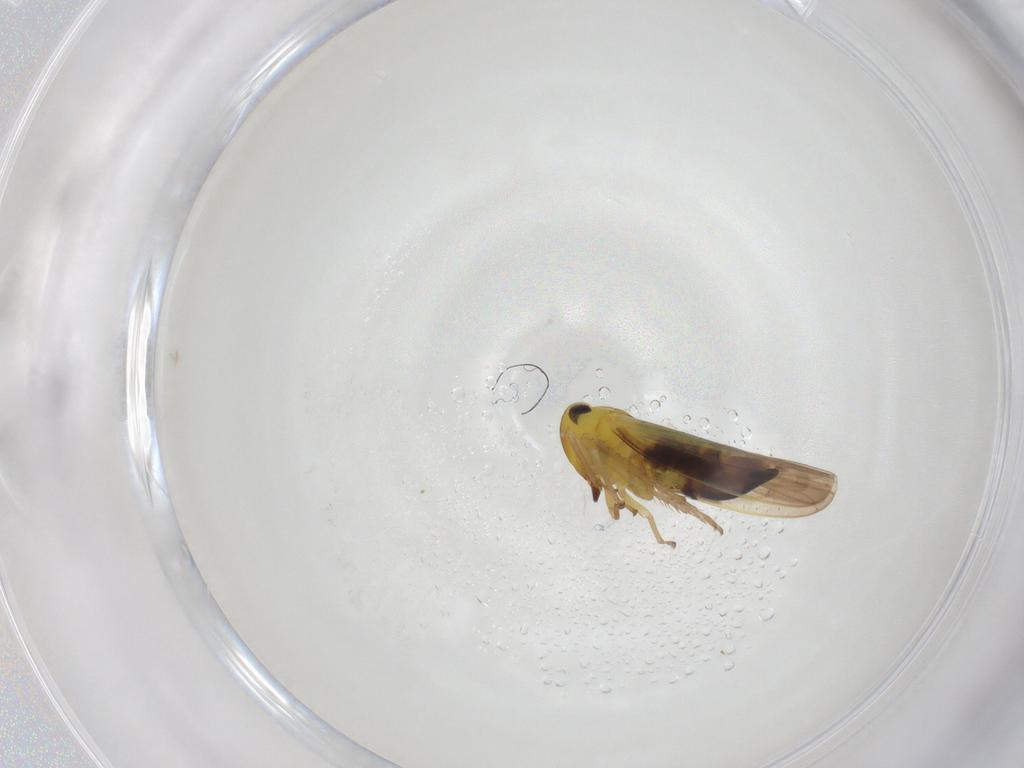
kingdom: Animalia
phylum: Arthropoda
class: Insecta
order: Hemiptera
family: Cicadellidae
